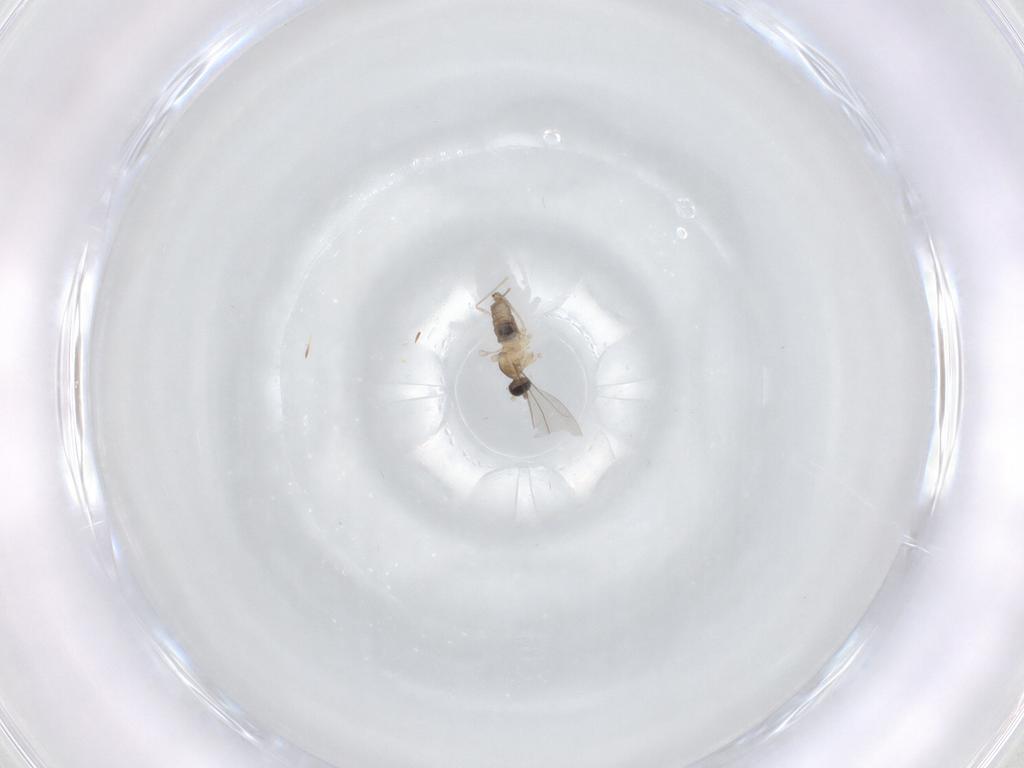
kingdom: Animalia
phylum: Arthropoda
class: Insecta
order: Diptera
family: Cecidomyiidae
